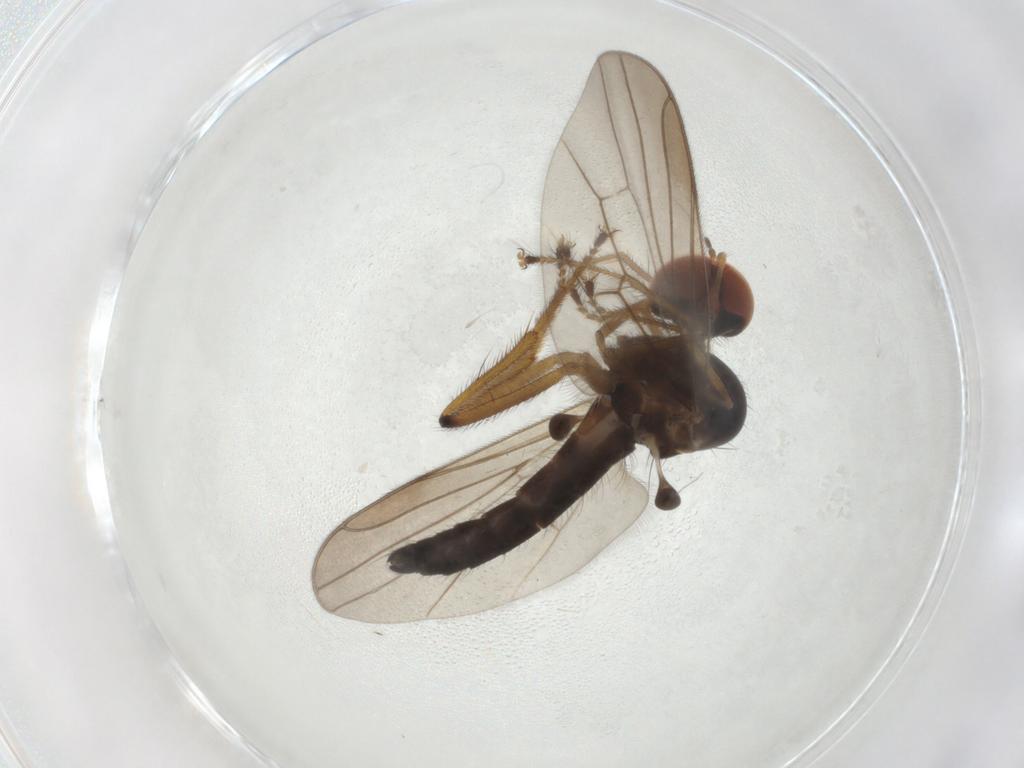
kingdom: Animalia
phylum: Arthropoda
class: Insecta
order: Diptera
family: Hybotidae
